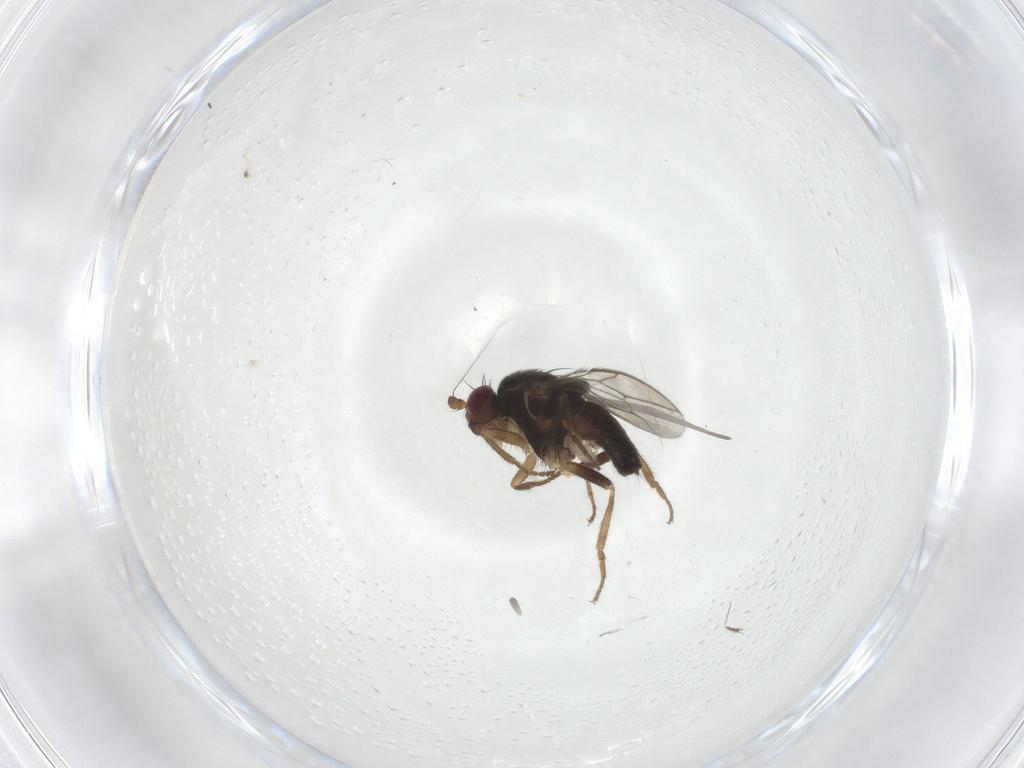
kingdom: Animalia
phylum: Arthropoda
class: Insecta
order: Diptera
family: Sphaeroceridae
